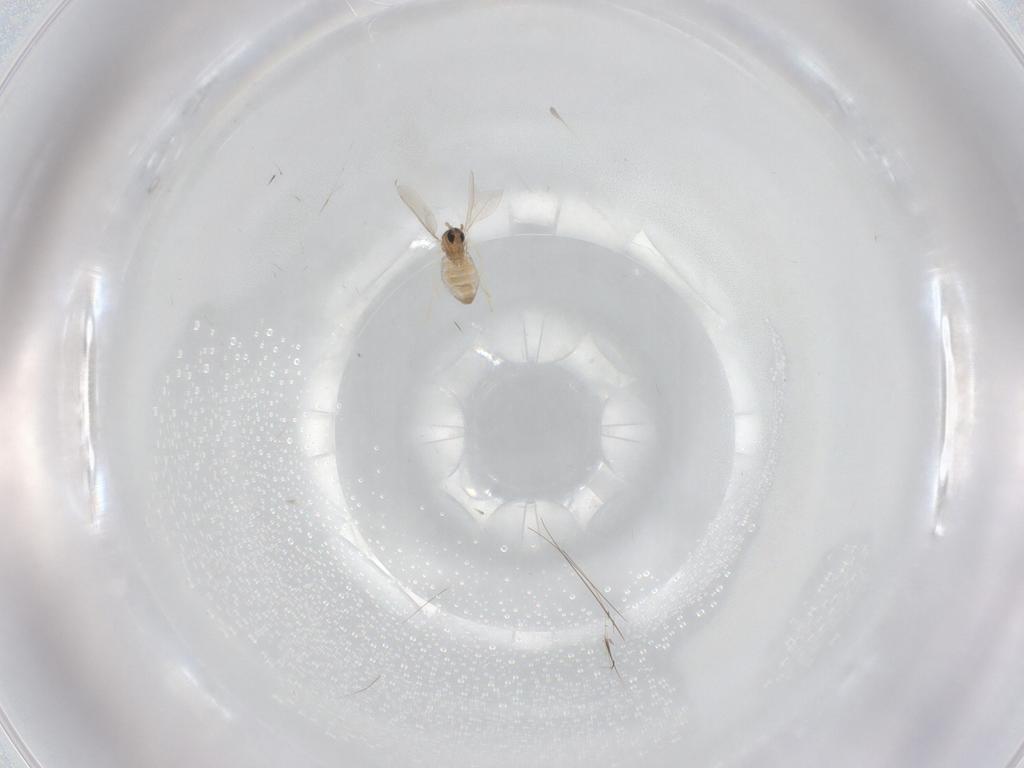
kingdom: Animalia
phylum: Arthropoda
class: Insecta
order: Diptera
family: Cecidomyiidae
